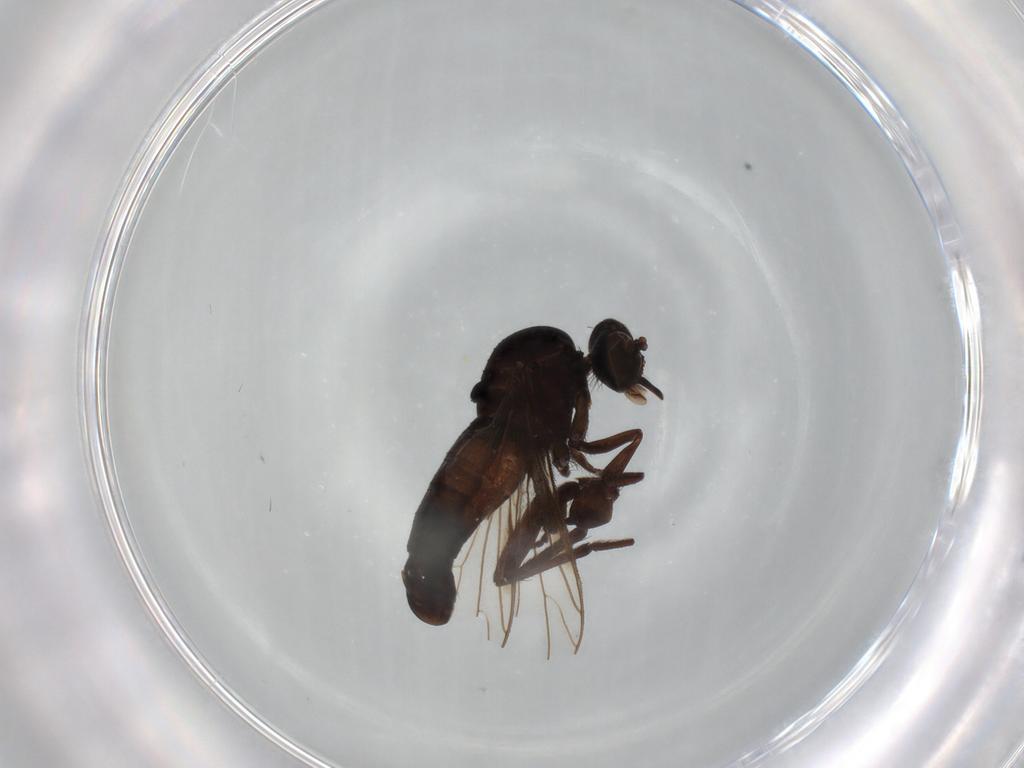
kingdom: Animalia
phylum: Arthropoda
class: Insecta
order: Diptera
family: Empididae
